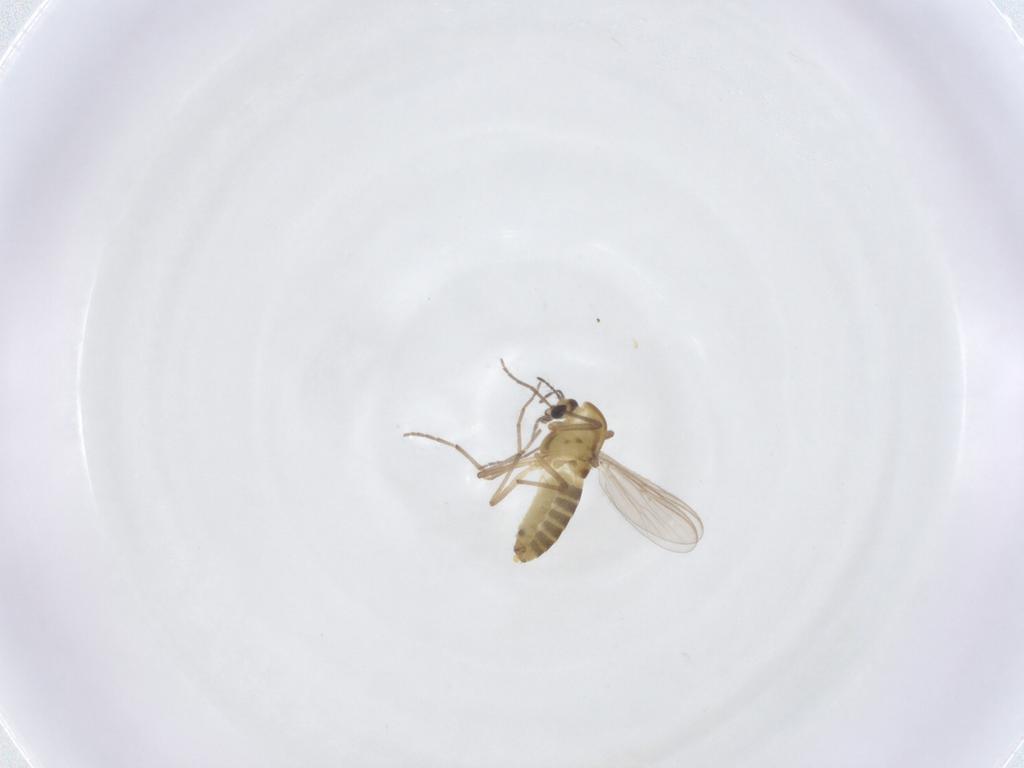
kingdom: Animalia
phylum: Arthropoda
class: Insecta
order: Diptera
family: Chironomidae
